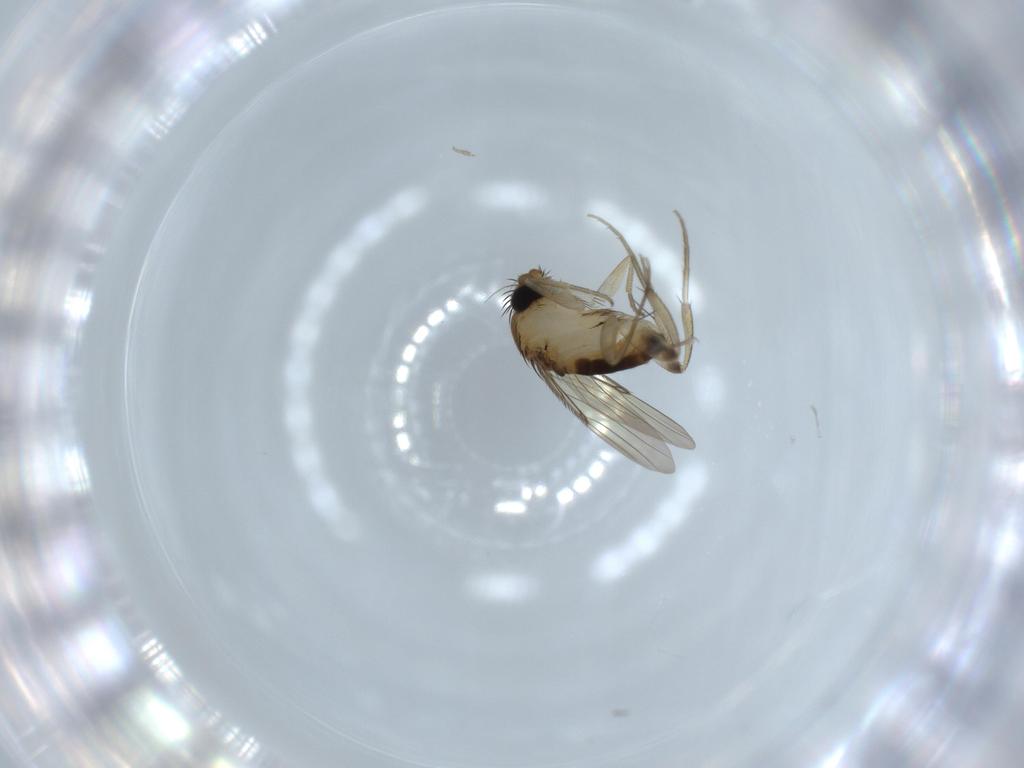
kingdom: Animalia
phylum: Arthropoda
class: Insecta
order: Diptera
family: Phoridae
